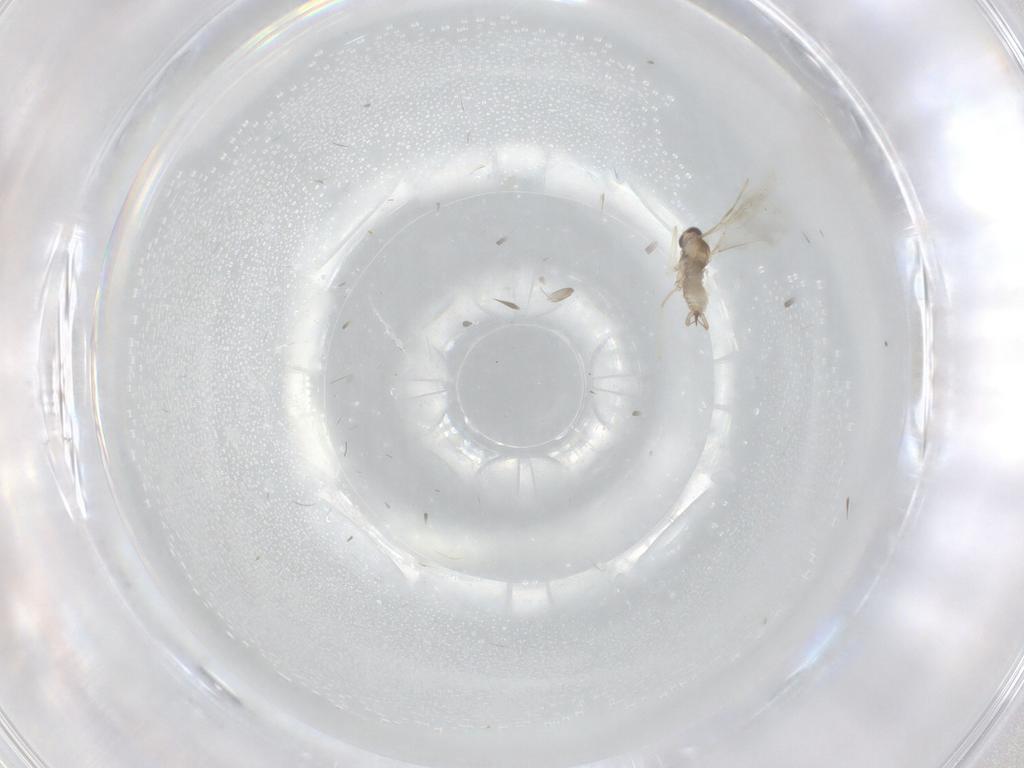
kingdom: Animalia
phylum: Arthropoda
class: Insecta
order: Diptera
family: Cecidomyiidae
